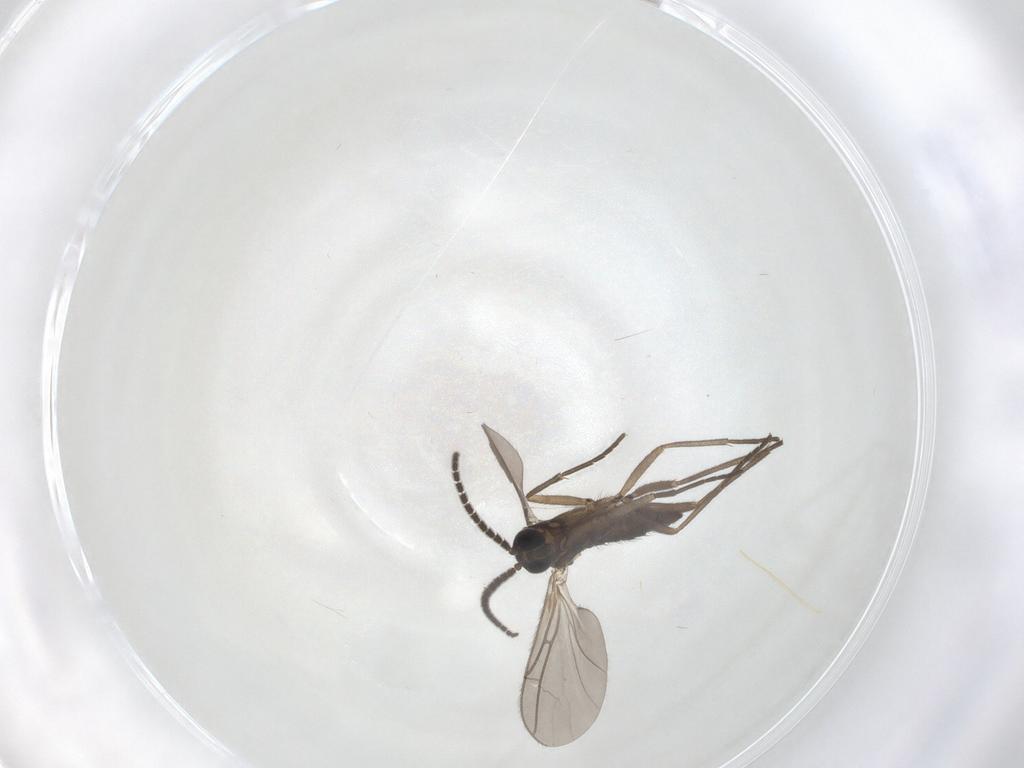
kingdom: Animalia
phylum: Arthropoda
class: Insecta
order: Diptera
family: Sciaridae
